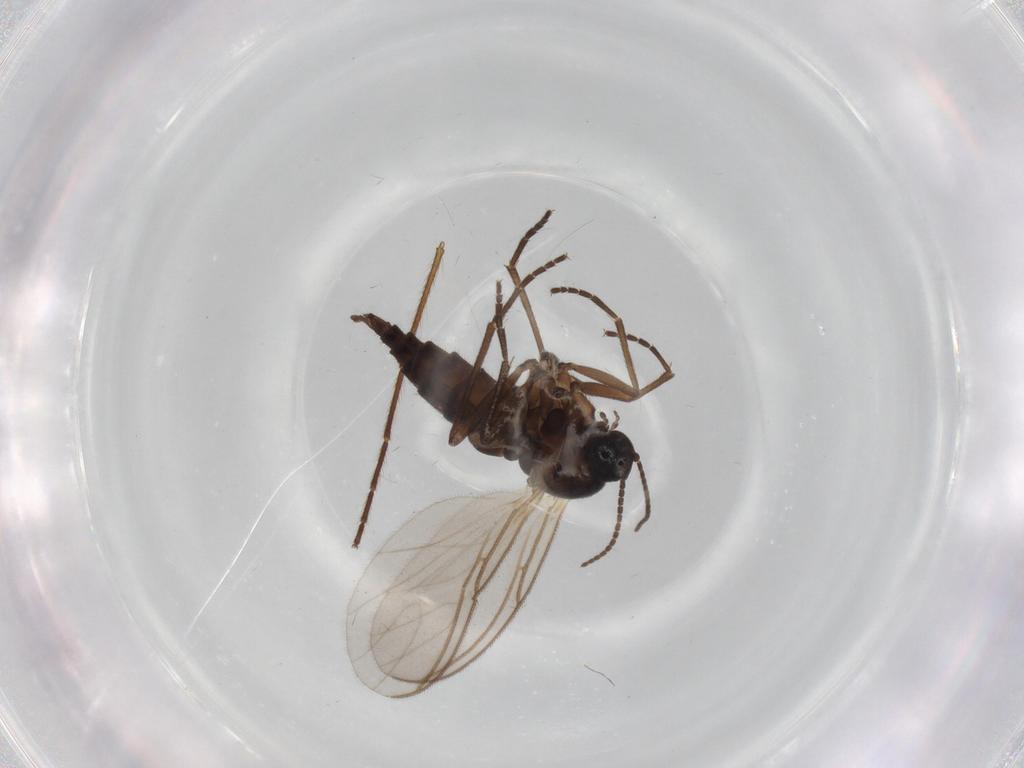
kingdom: Animalia
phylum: Arthropoda
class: Insecta
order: Diptera
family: Sciaridae
